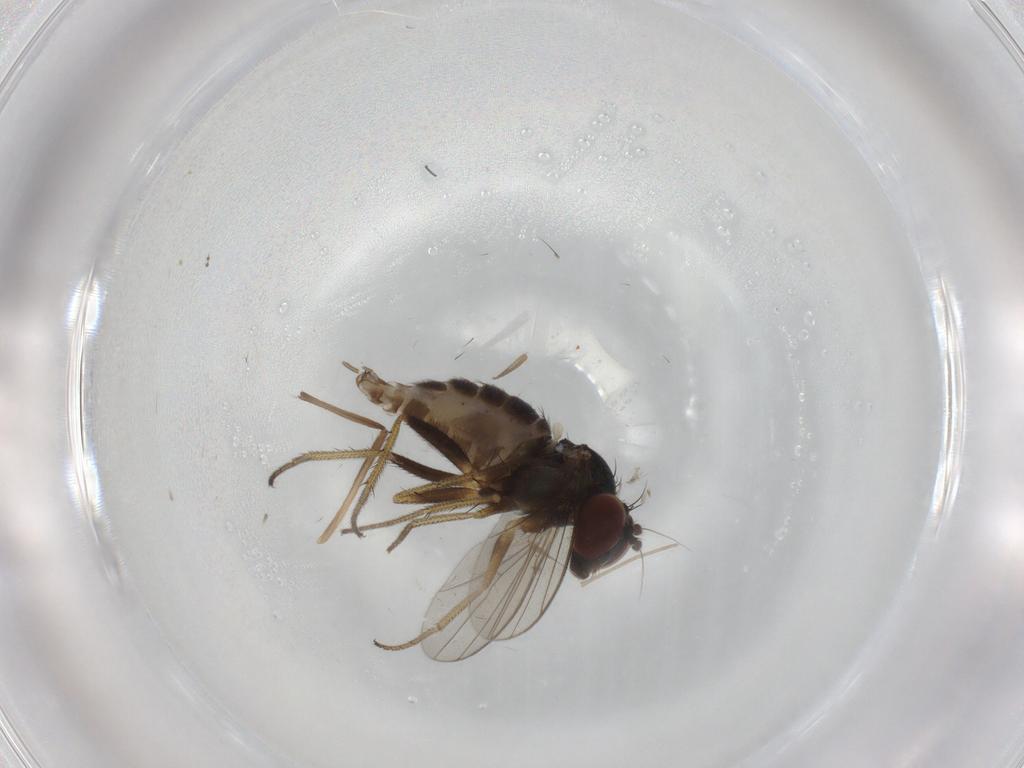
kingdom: Animalia
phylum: Arthropoda
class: Insecta
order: Diptera
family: Dolichopodidae
